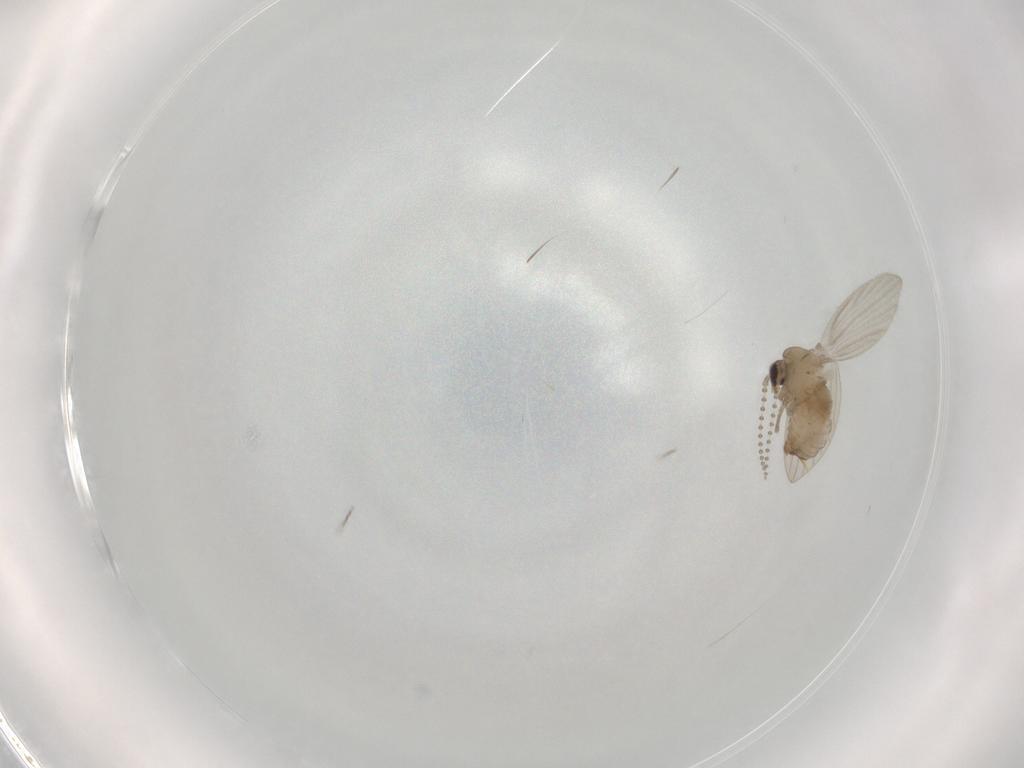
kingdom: Animalia
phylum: Arthropoda
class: Insecta
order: Diptera
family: Psychodidae
